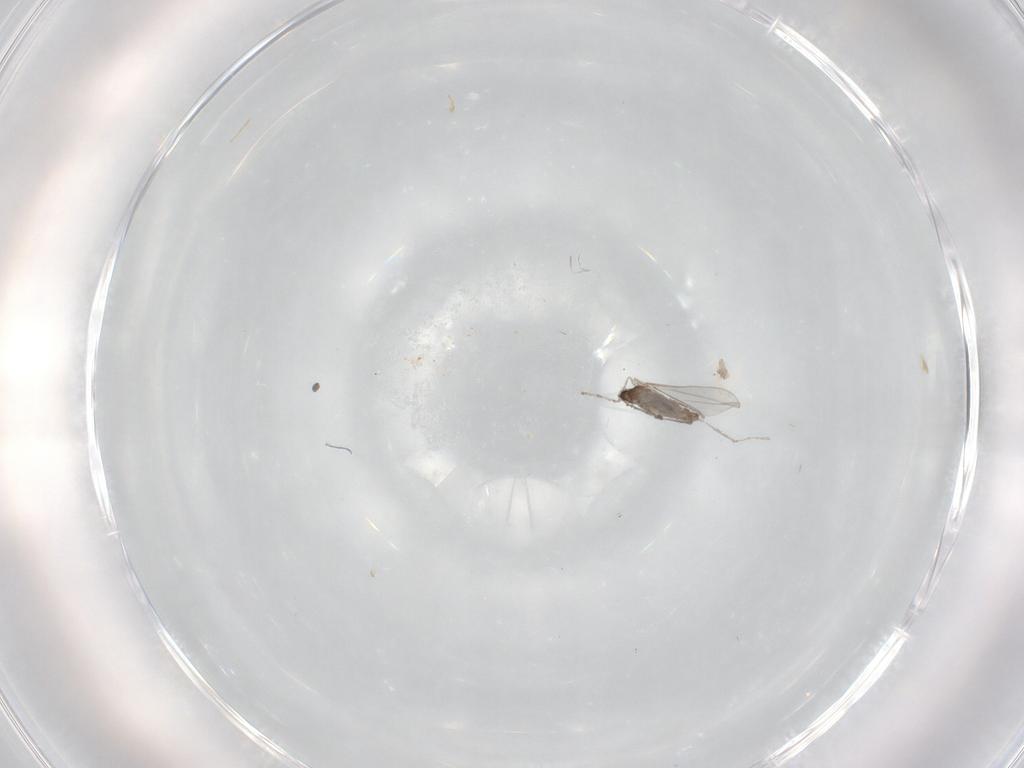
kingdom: Animalia
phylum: Arthropoda
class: Insecta
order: Diptera
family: Cecidomyiidae
